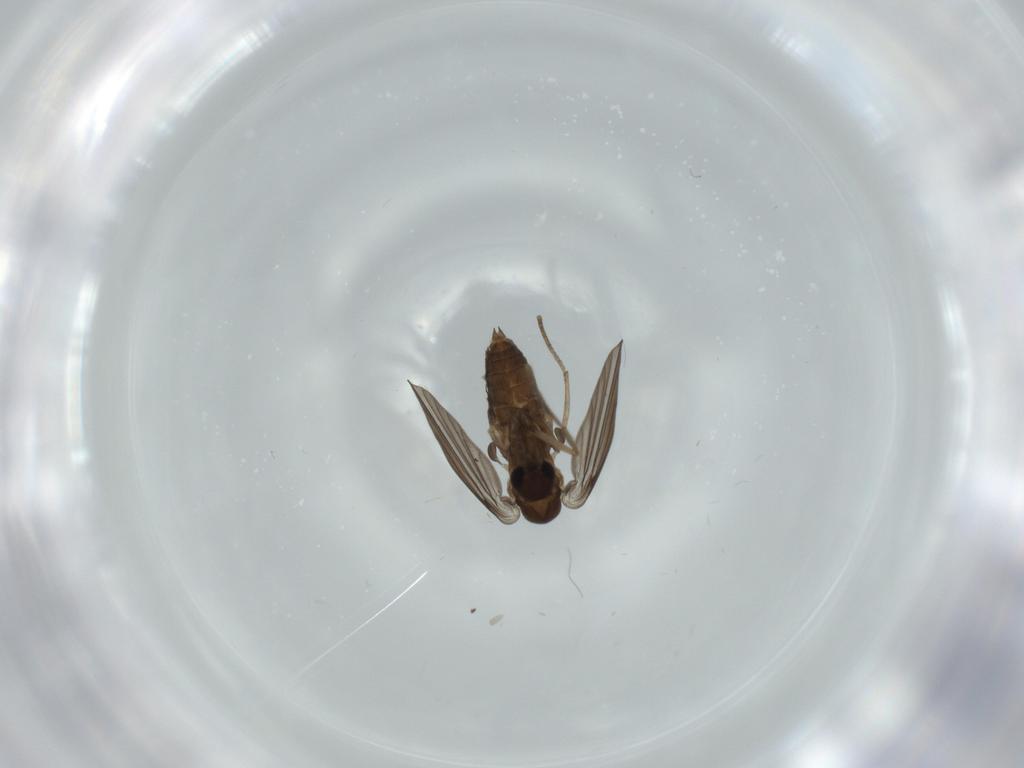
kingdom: Animalia
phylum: Arthropoda
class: Insecta
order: Diptera
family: Psychodidae
